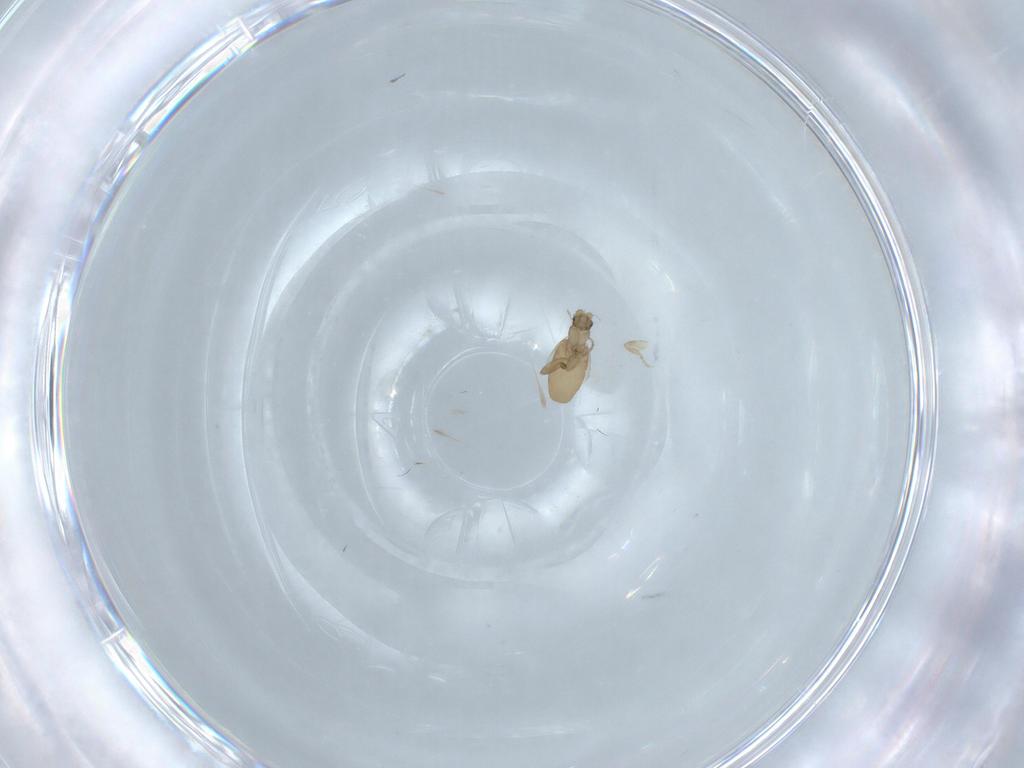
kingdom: Animalia
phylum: Arthropoda
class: Insecta
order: Diptera
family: Phoridae
